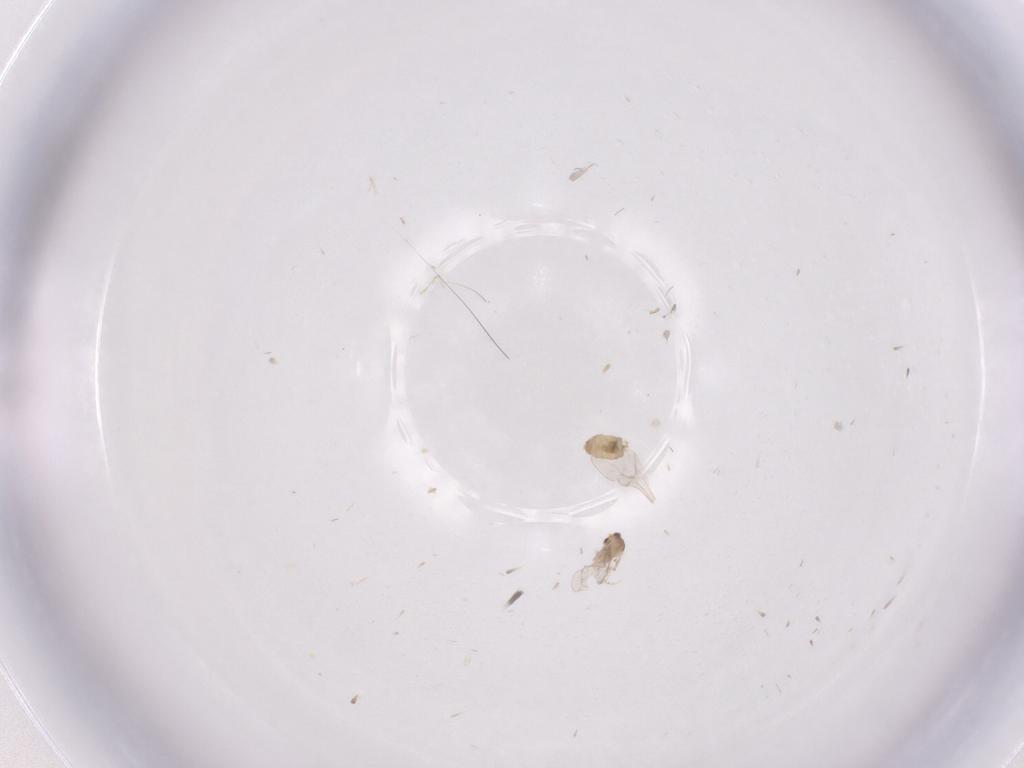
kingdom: Animalia
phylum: Arthropoda
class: Insecta
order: Diptera
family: Cecidomyiidae
